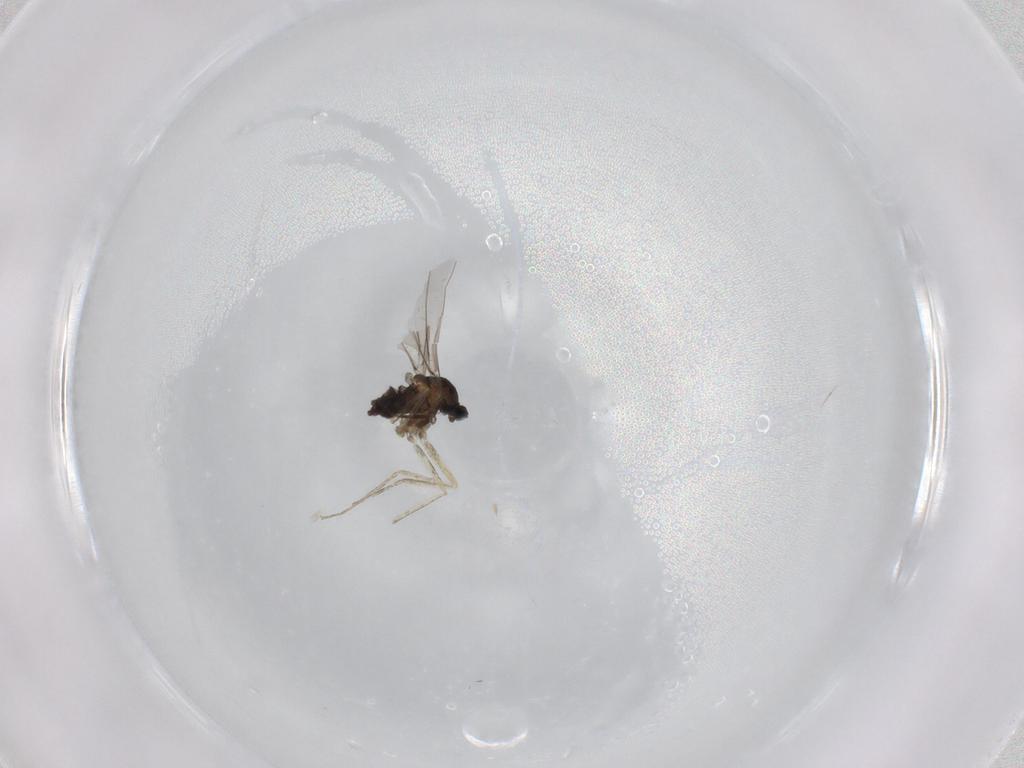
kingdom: Animalia
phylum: Arthropoda
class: Insecta
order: Diptera
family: Cecidomyiidae
